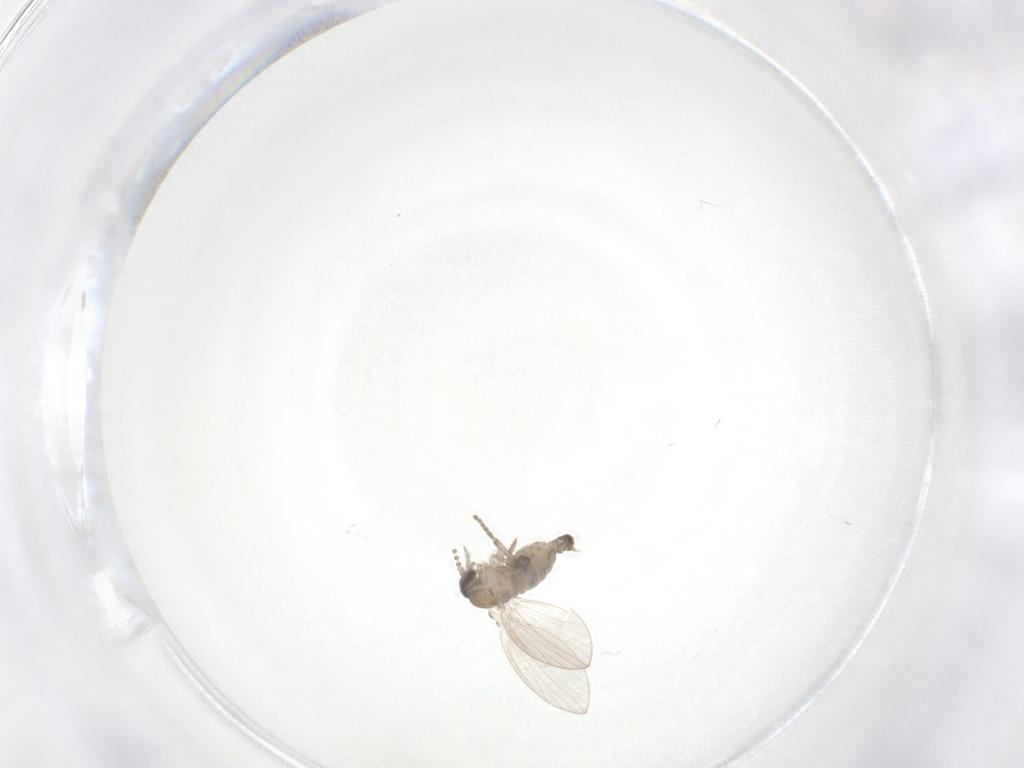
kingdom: Animalia
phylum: Arthropoda
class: Insecta
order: Diptera
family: Psychodidae
